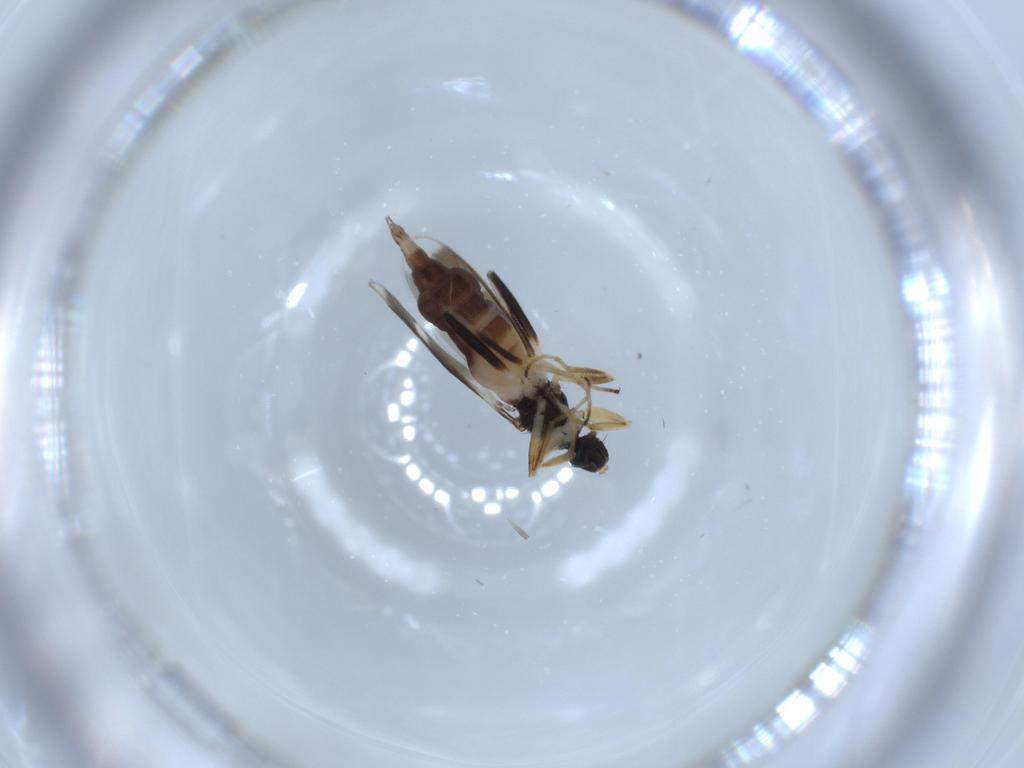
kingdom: Animalia
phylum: Arthropoda
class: Insecta
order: Diptera
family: Hybotidae
